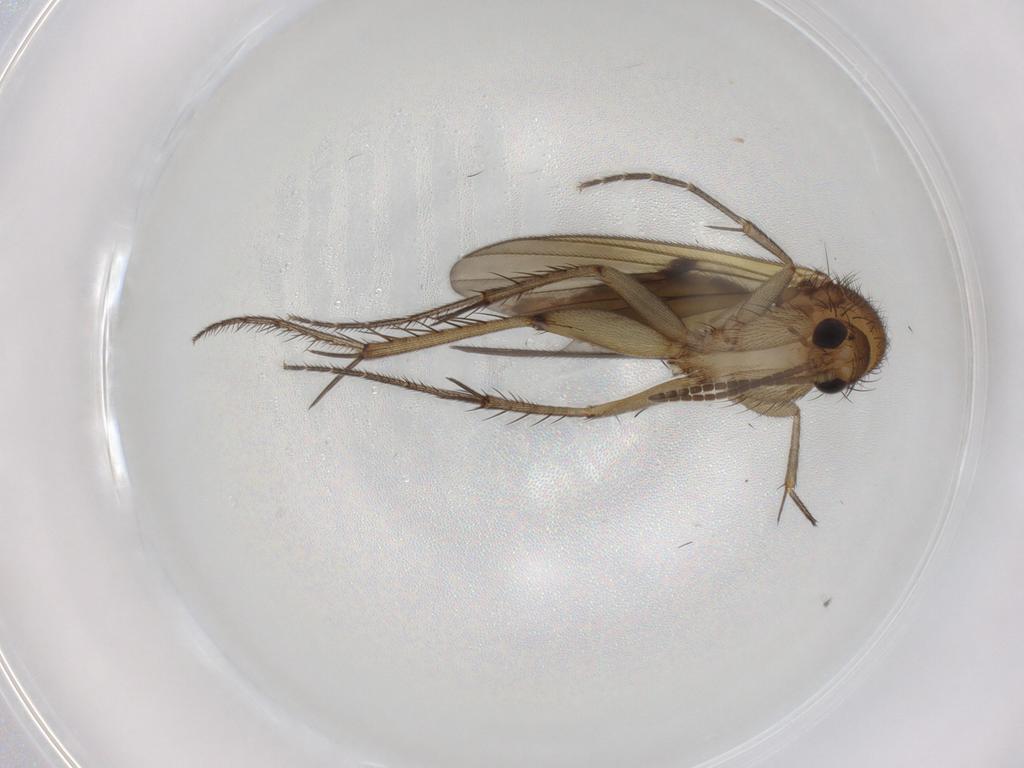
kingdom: Animalia
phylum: Arthropoda
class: Insecta
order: Diptera
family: Mycetophilidae
